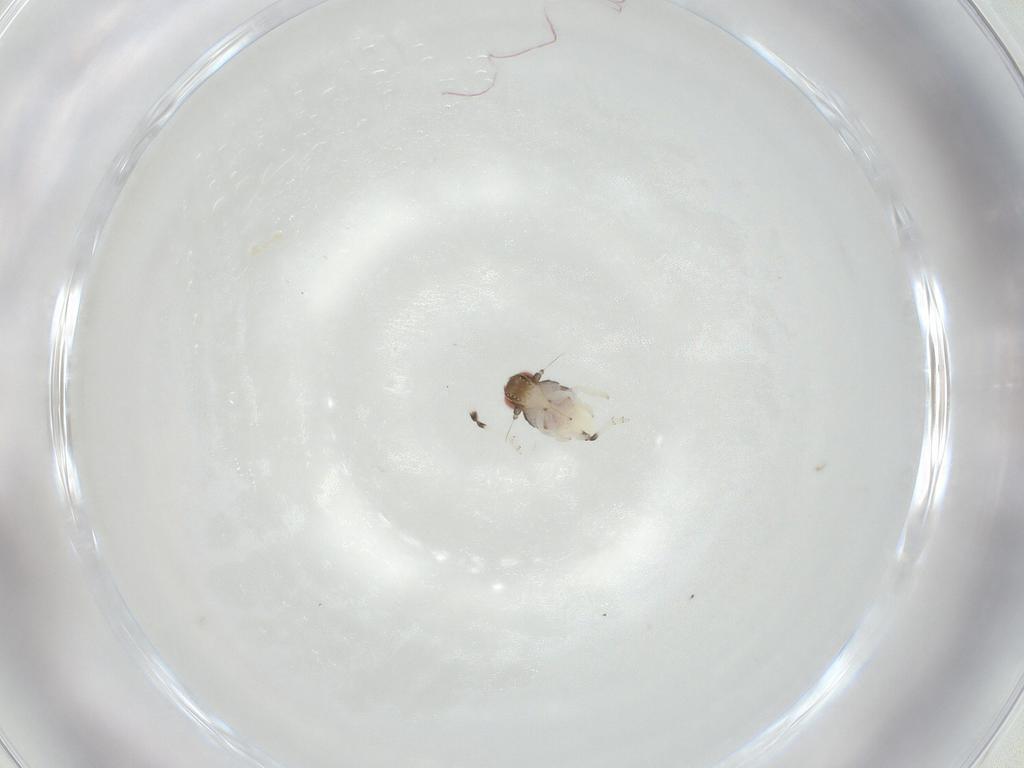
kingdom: Animalia
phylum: Arthropoda
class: Insecta
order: Hemiptera
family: Nogodinidae
